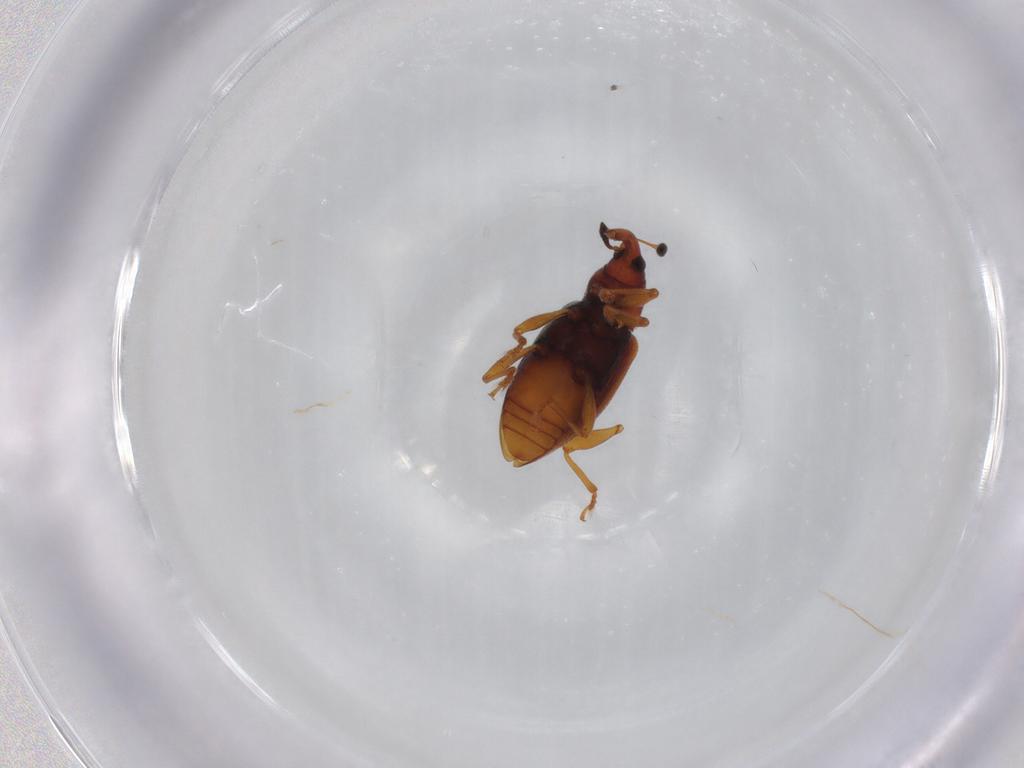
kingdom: Animalia
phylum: Arthropoda
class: Insecta
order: Coleoptera
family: Curculionidae
